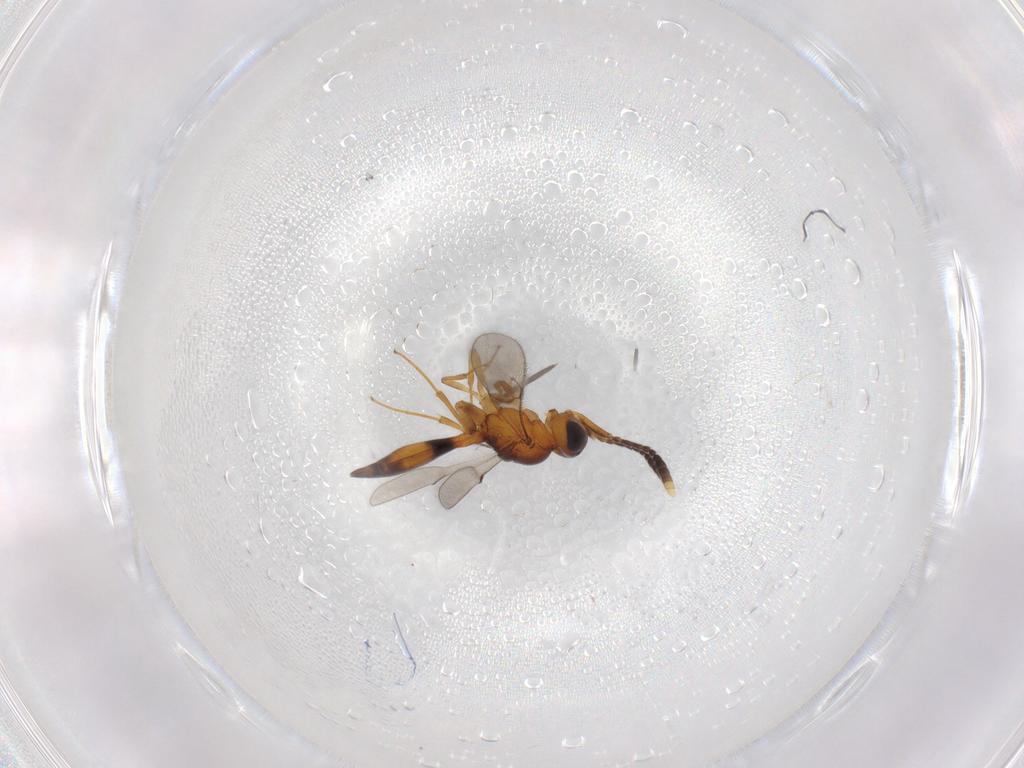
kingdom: Animalia
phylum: Arthropoda
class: Insecta
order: Hymenoptera
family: Scelionidae
